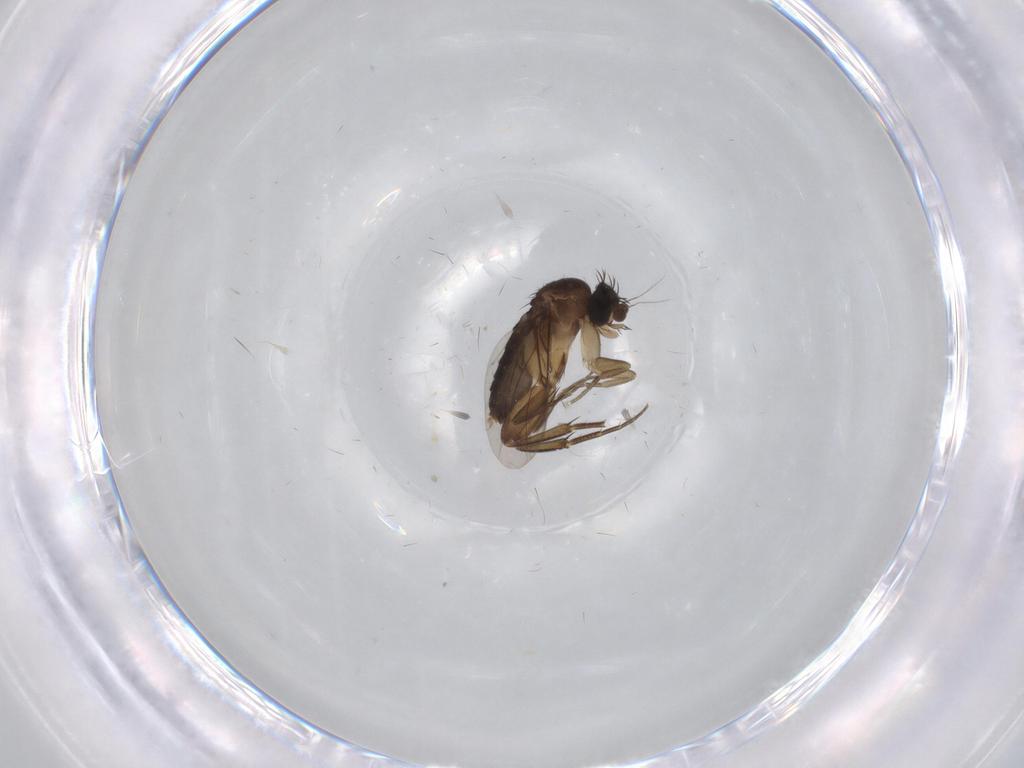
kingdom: Animalia
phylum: Arthropoda
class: Insecta
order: Diptera
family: Phoridae
